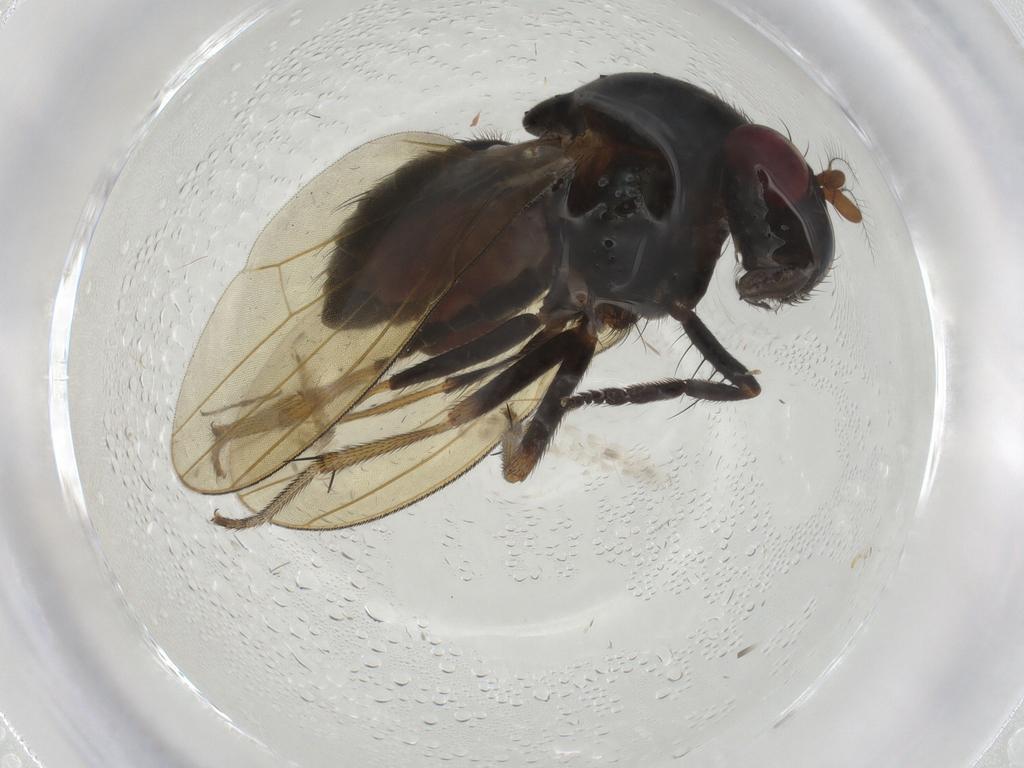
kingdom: Animalia
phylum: Arthropoda
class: Insecta
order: Diptera
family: Ephydridae
